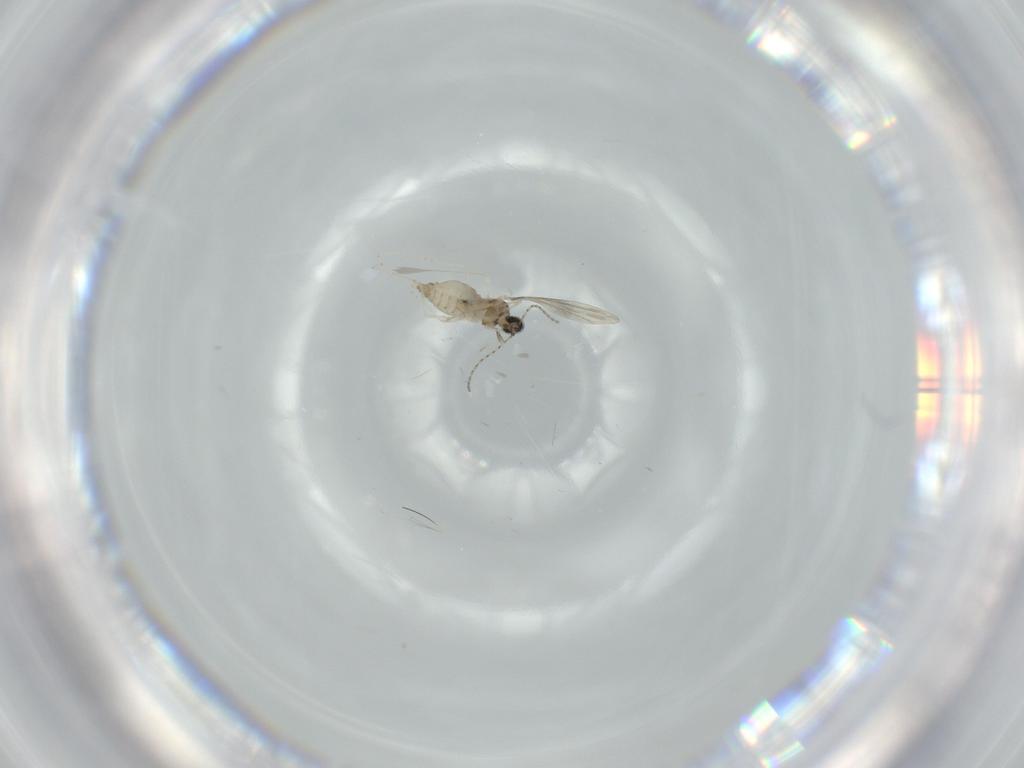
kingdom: Animalia
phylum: Arthropoda
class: Insecta
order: Diptera
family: Cecidomyiidae
